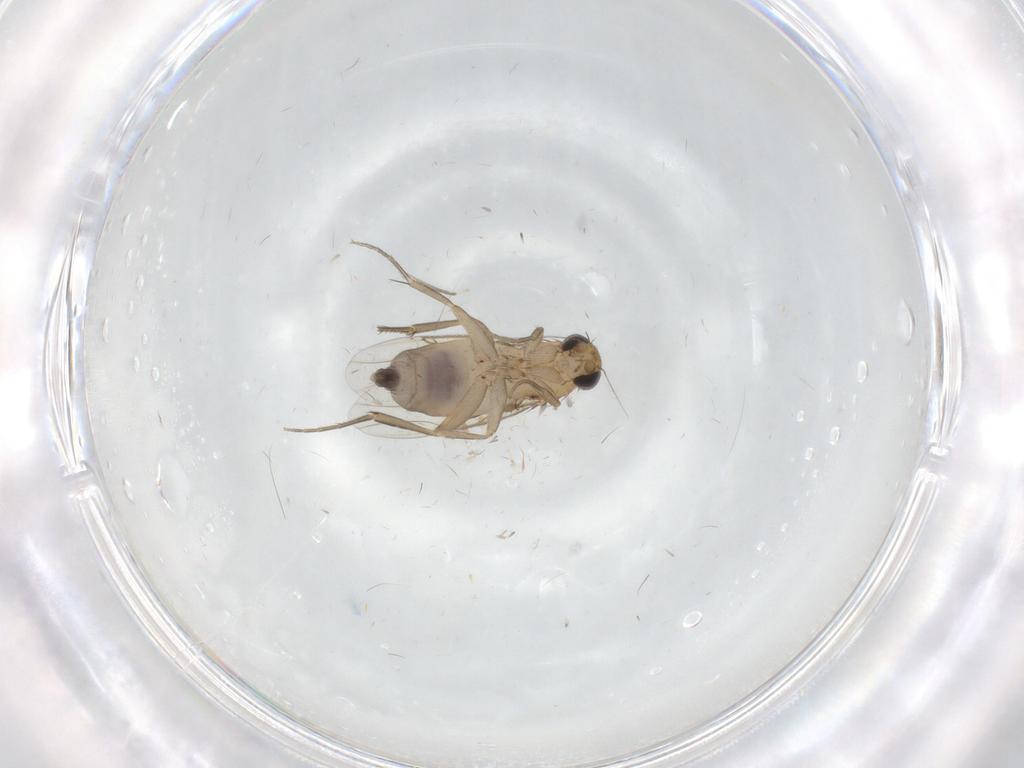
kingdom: Animalia
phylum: Arthropoda
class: Insecta
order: Diptera
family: Phoridae
